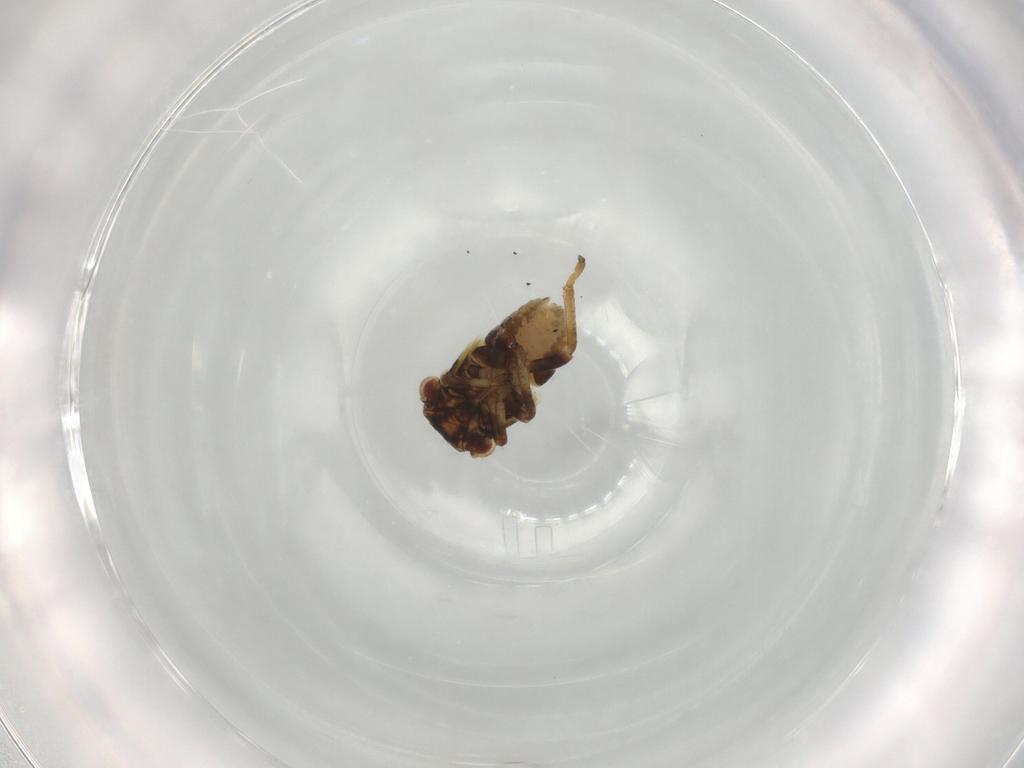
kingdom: Animalia
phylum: Arthropoda
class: Insecta
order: Hemiptera
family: Cicadellidae
